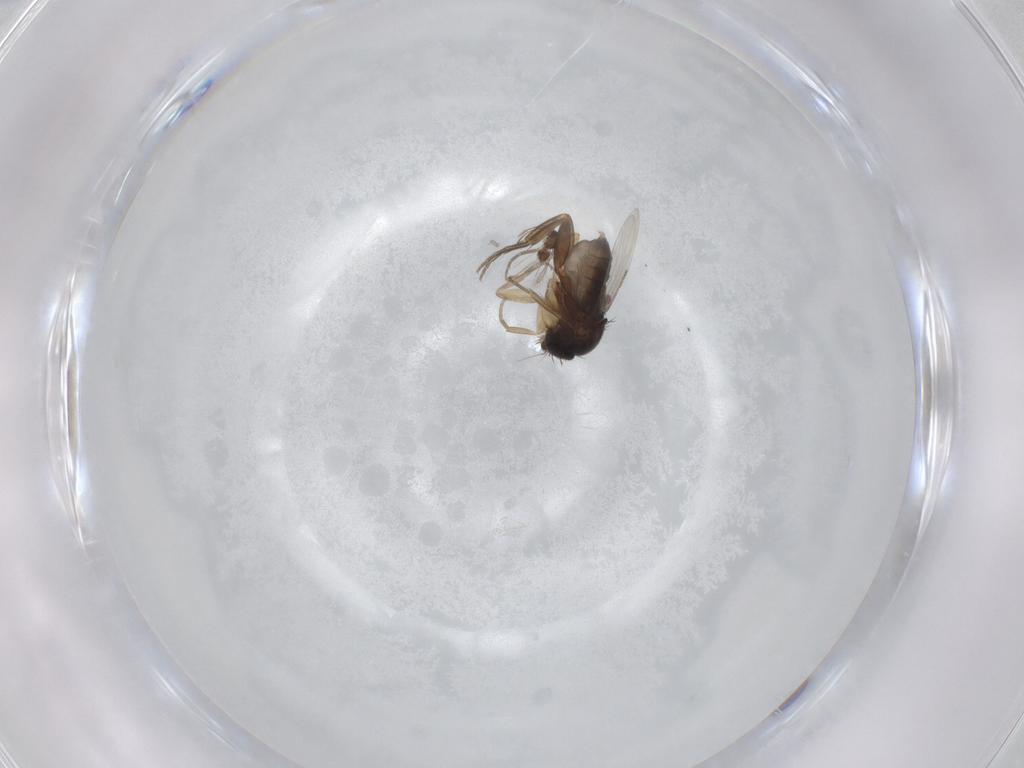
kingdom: Animalia
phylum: Arthropoda
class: Insecta
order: Diptera
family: Phoridae
